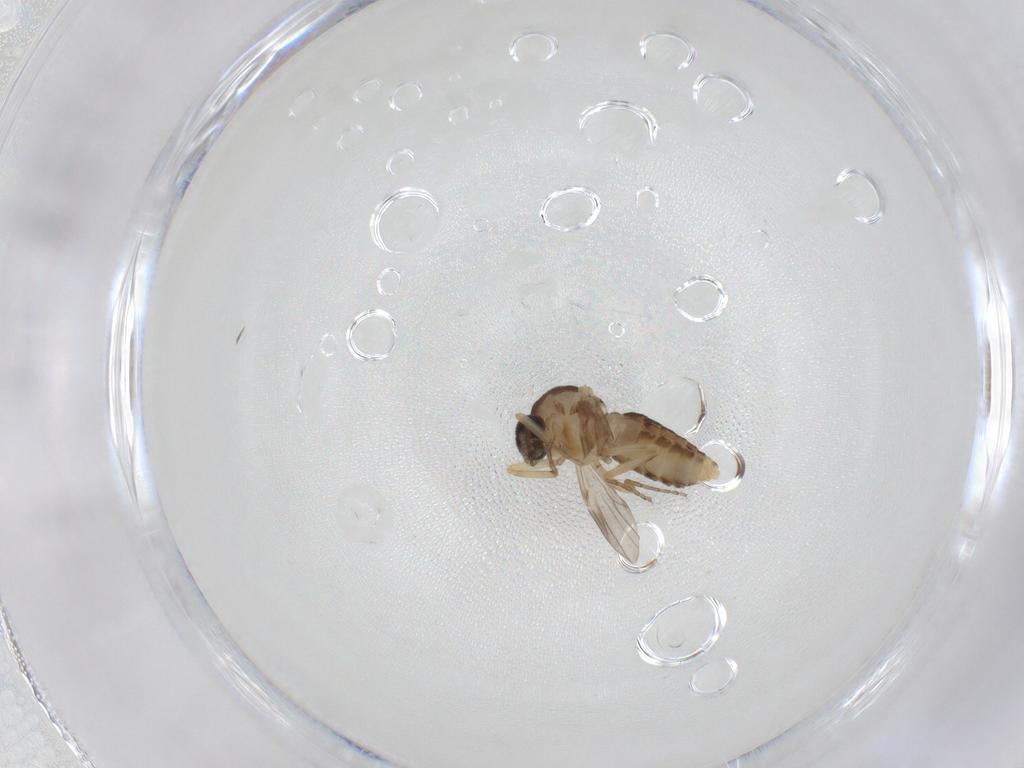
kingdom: Animalia
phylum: Arthropoda
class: Insecta
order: Diptera
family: Ceratopogonidae
